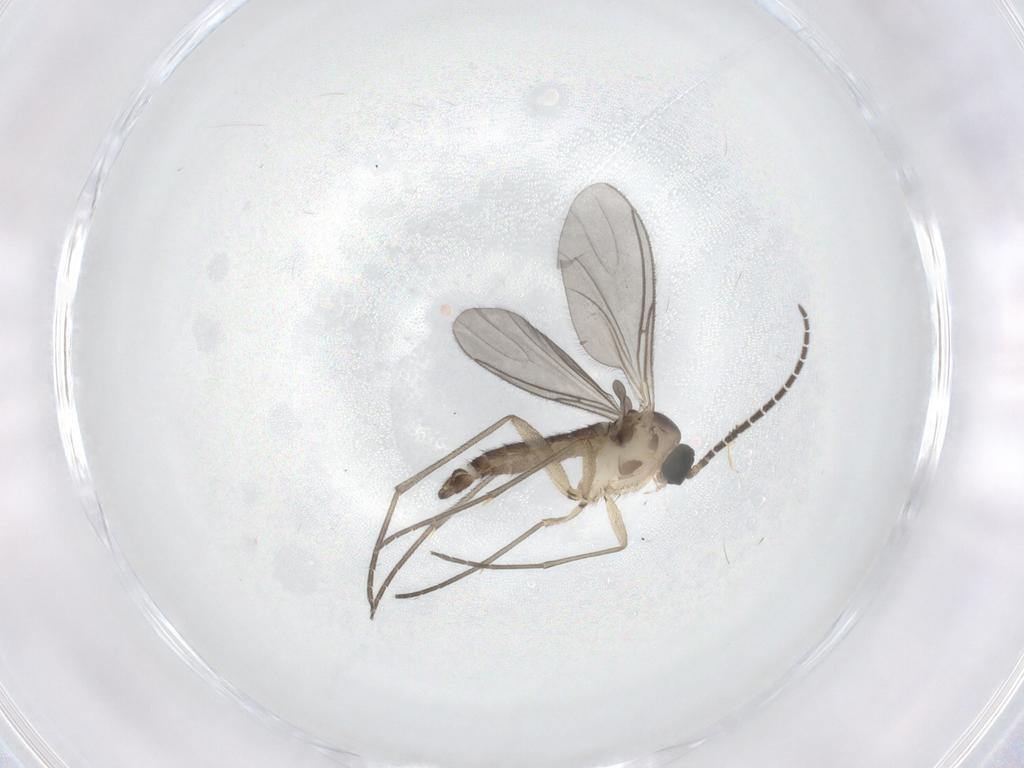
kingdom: Animalia
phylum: Arthropoda
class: Insecta
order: Diptera
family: Sciaridae
